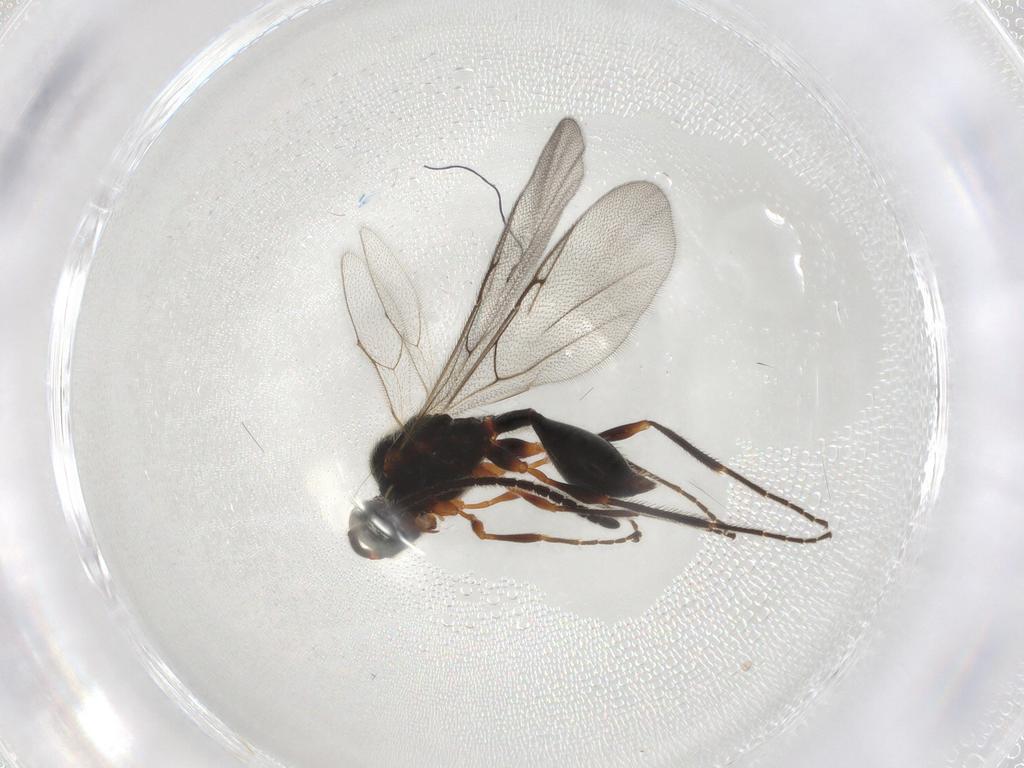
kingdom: Animalia
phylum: Arthropoda
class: Insecta
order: Hymenoptera
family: Diapriidae
